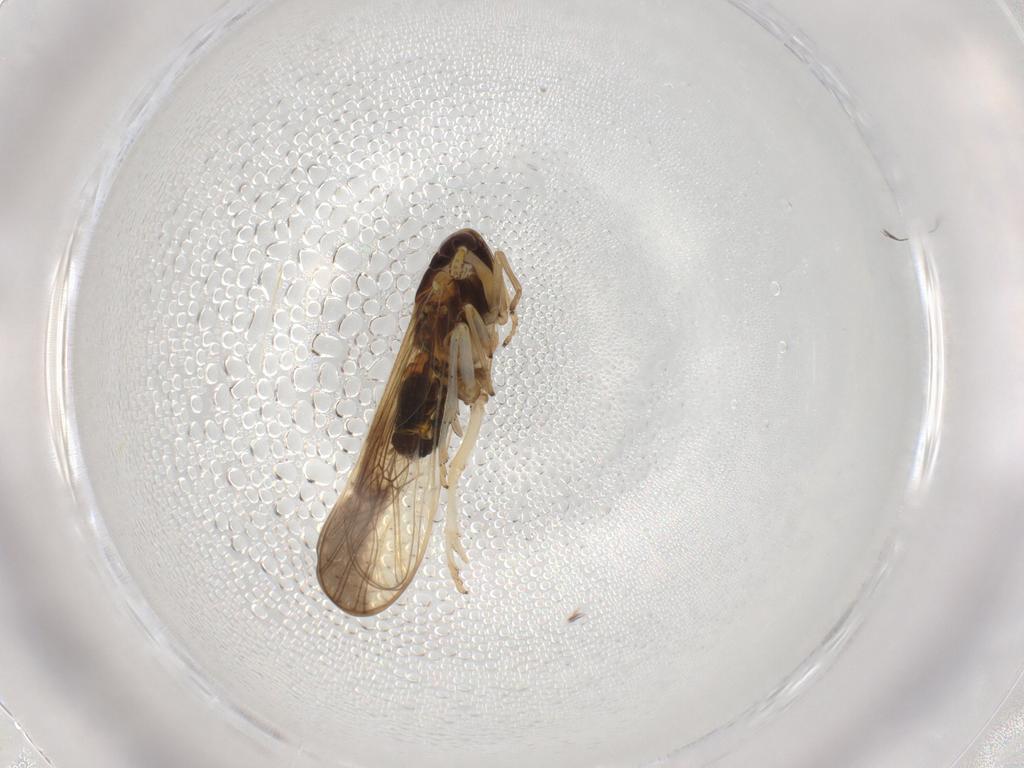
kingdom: Animalia
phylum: Arthropoda
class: Insecta
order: Hemiptera
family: Delphacidae
